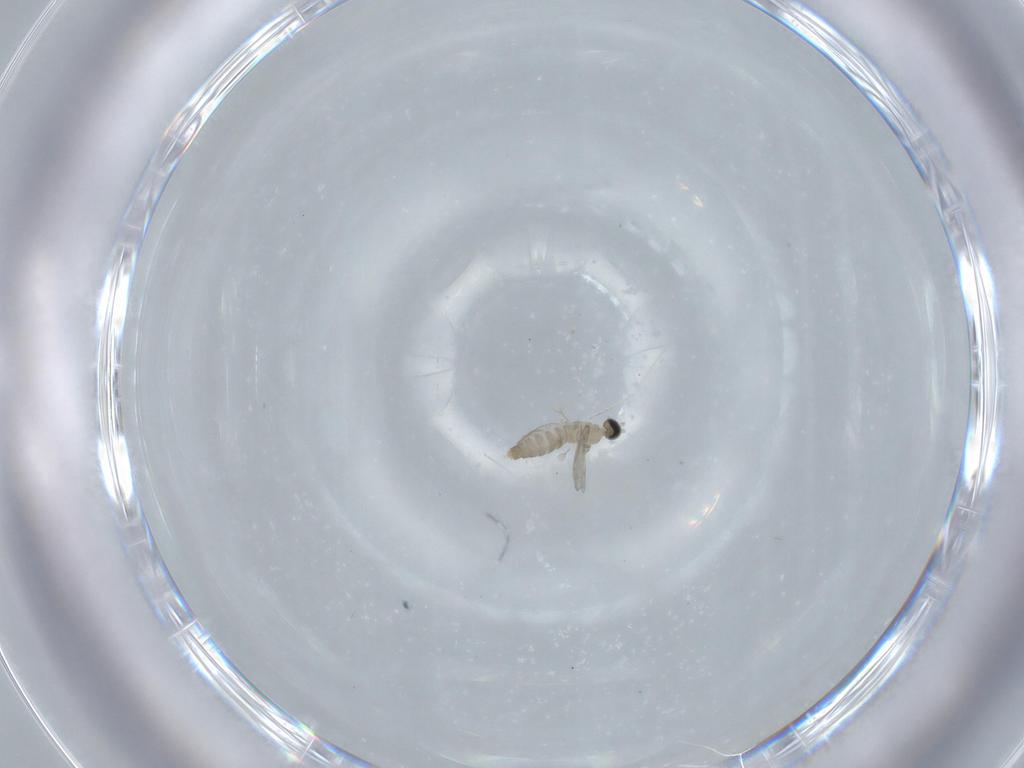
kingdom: Animalia
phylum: Arthropoda
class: Insecta
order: Diptera
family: Cecidomyiidae
